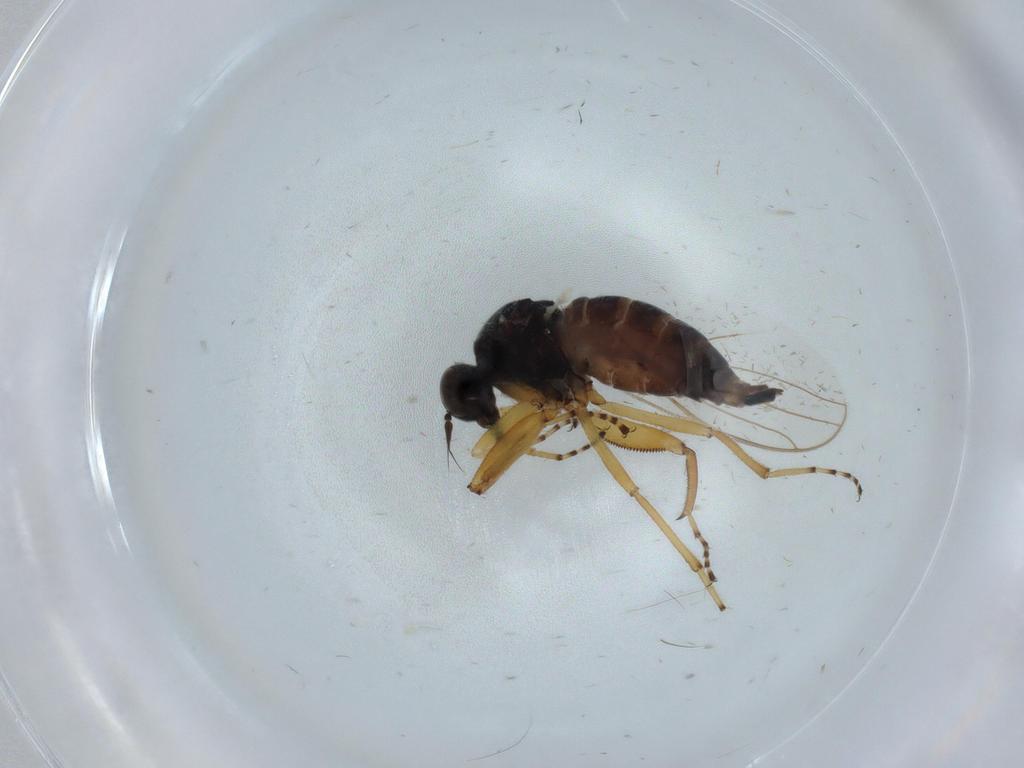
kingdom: Animalia
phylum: Arthropoda
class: Insecta
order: Diptera
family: Hybotidae
